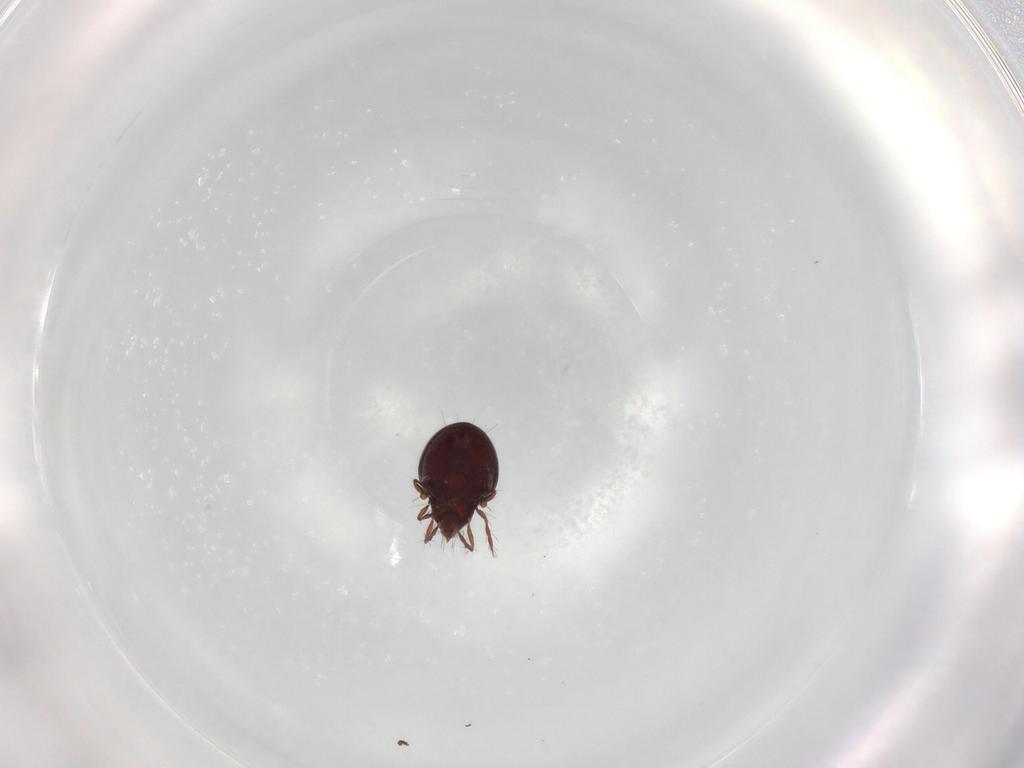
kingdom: Animalia
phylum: Arthropoda
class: Arachnida
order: Sarcoptiformes
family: Ceratoppiidae
